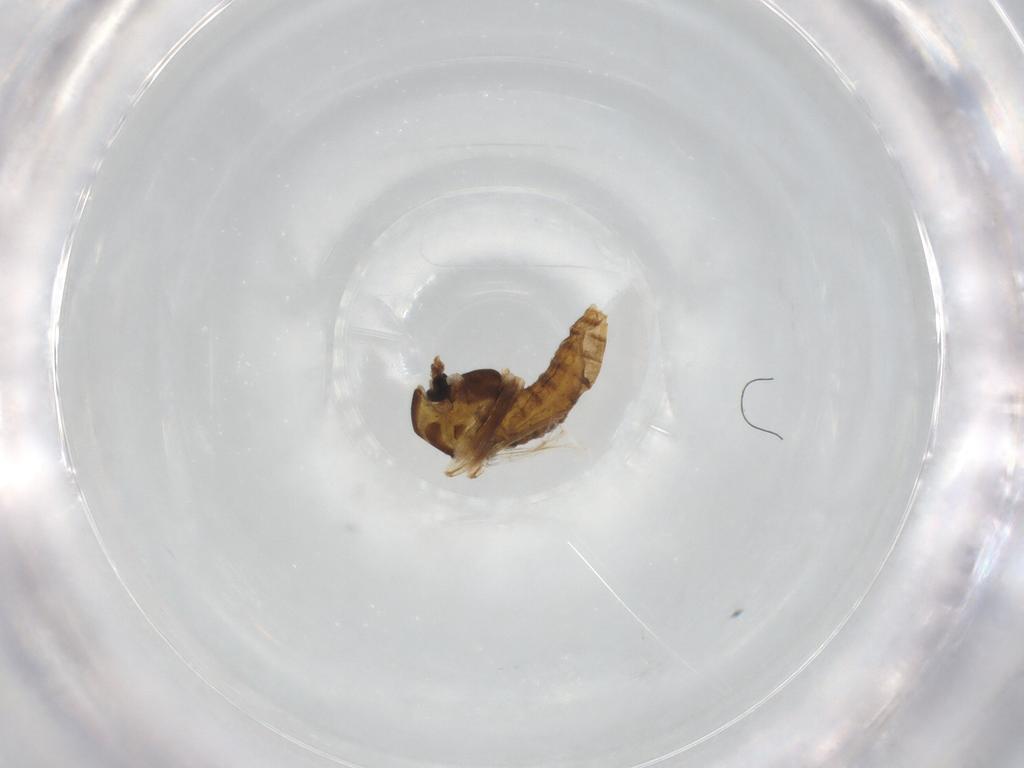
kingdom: Animalia
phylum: Arthropoda
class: Insecta
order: Diptera
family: Chironomidae
